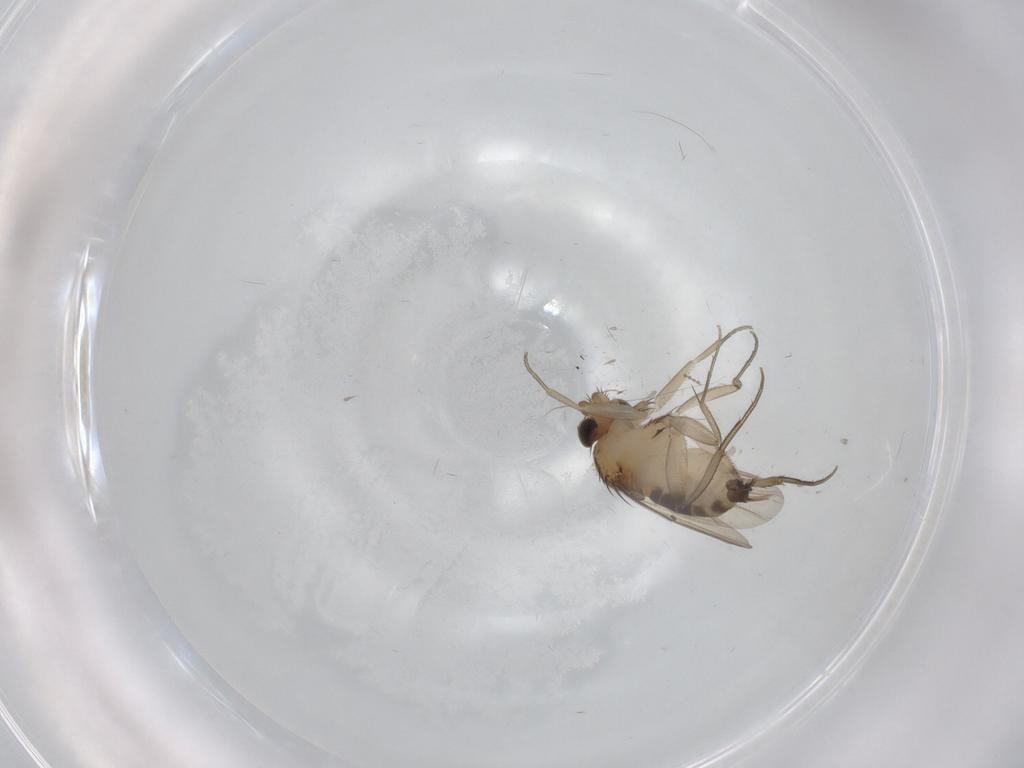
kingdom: Animalia
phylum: Arthropoda
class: Insecta
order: Diptera
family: Phoridae
